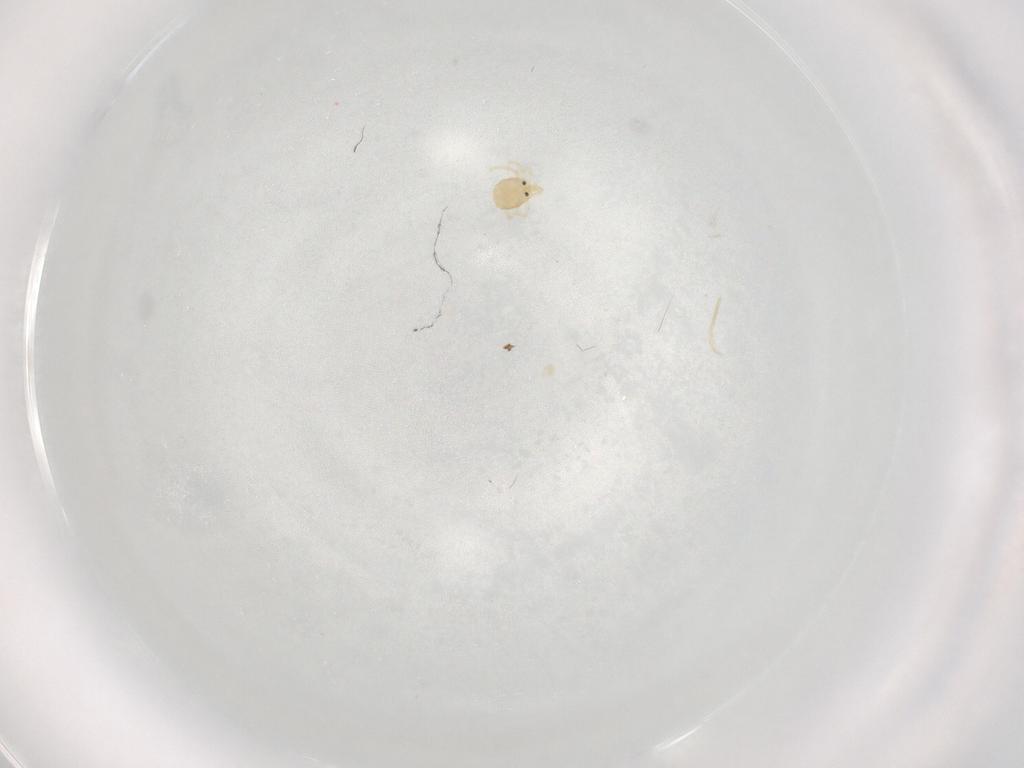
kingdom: Animalia
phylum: Arthropoda
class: Arachnida
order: Trombidiformes
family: Lebertiidae
